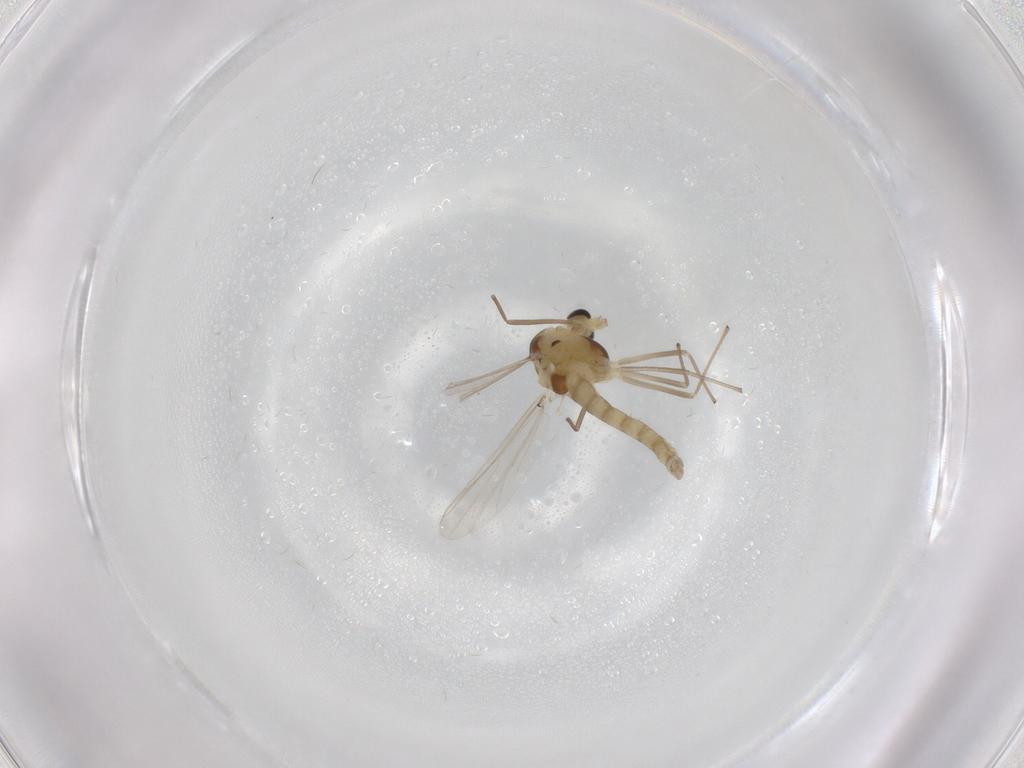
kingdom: Animalia
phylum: Arthropoda
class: Insecta
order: Diptera
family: Chironomidae
